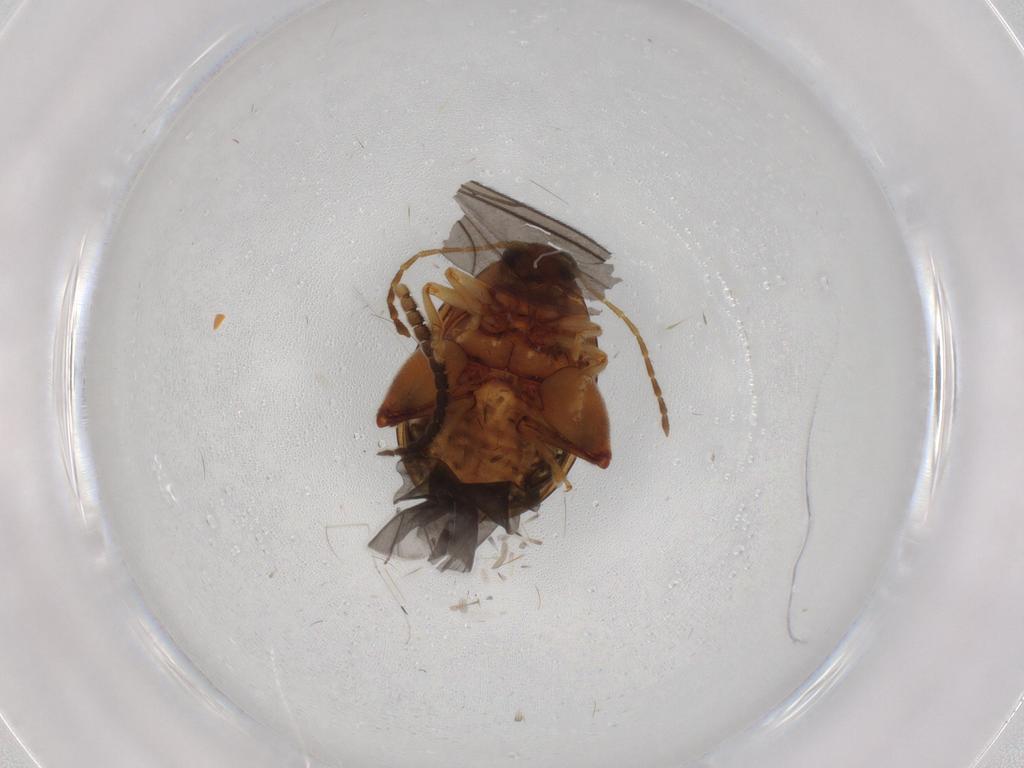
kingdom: Animalia
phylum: Arthropoda
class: Insecta
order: Coleoptera
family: Chrysomelidae
